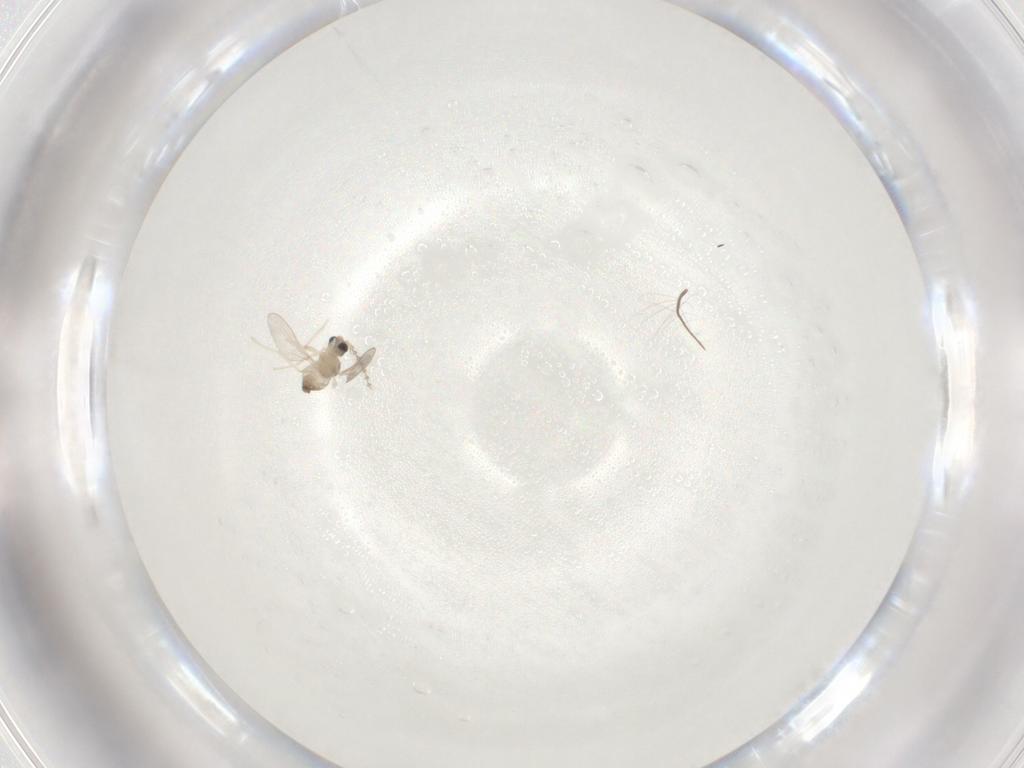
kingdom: Animalia
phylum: Arthropoda
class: Insecta
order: Diptera
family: Cecidomyiidae
